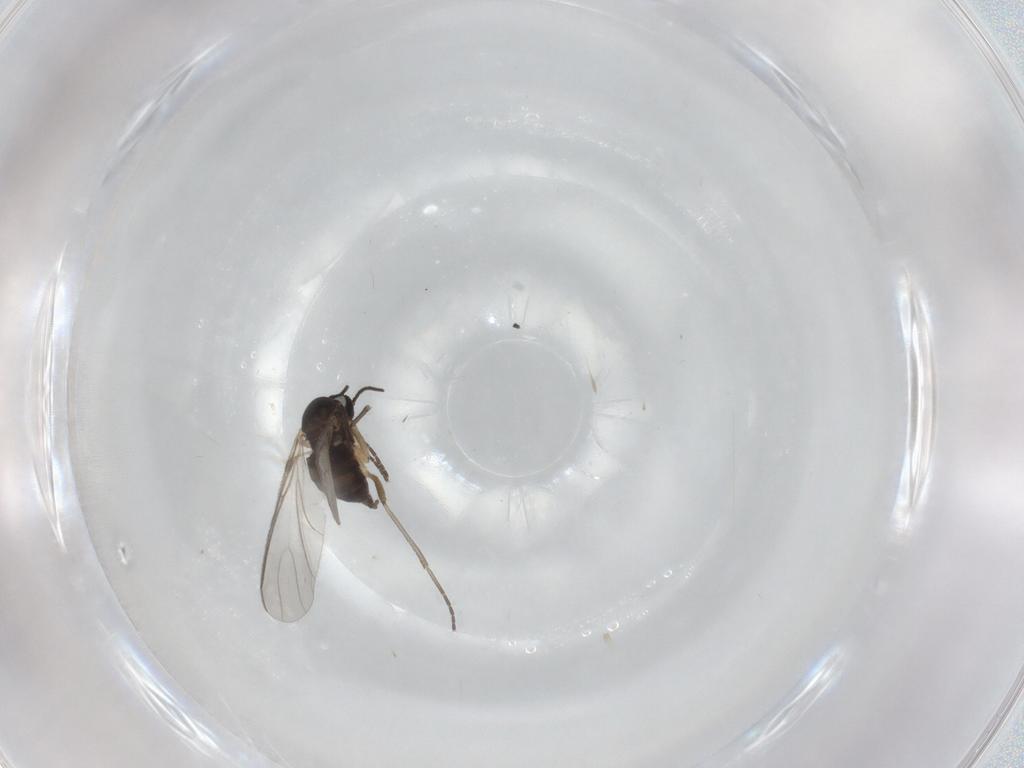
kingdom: Animalia
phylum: Arthropoda
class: Insecta
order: Diptera
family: Sciaridae
